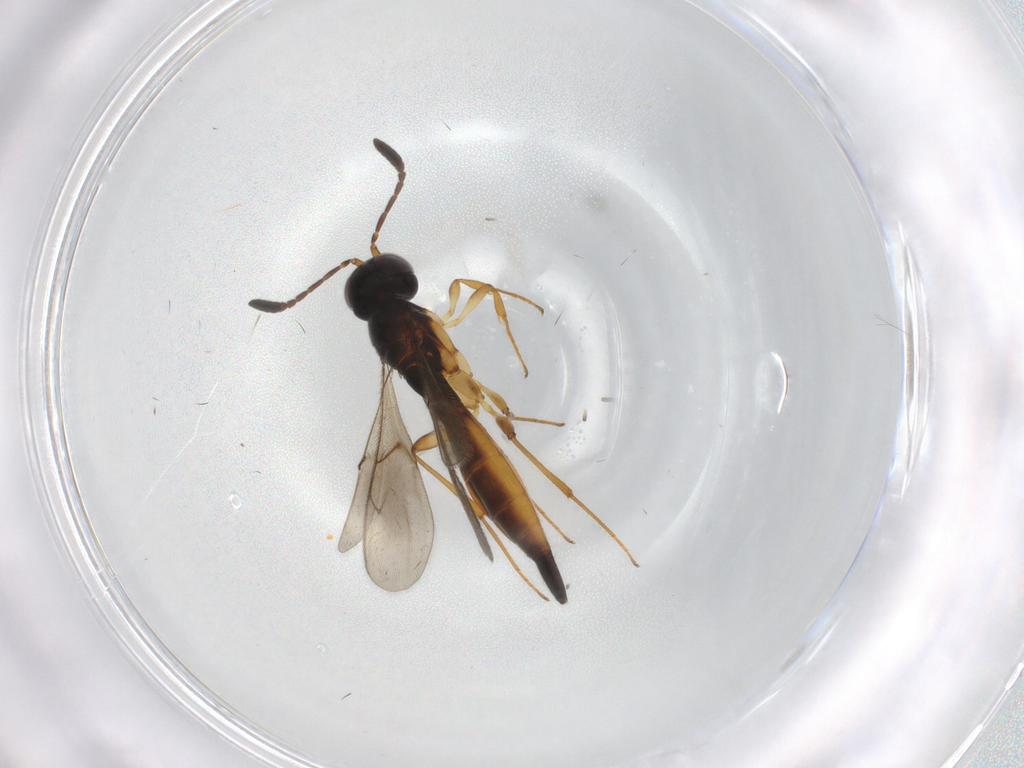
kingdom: Animalia
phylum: Arthropoda
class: Insecta
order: Hymenoptera
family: Scelionidae
